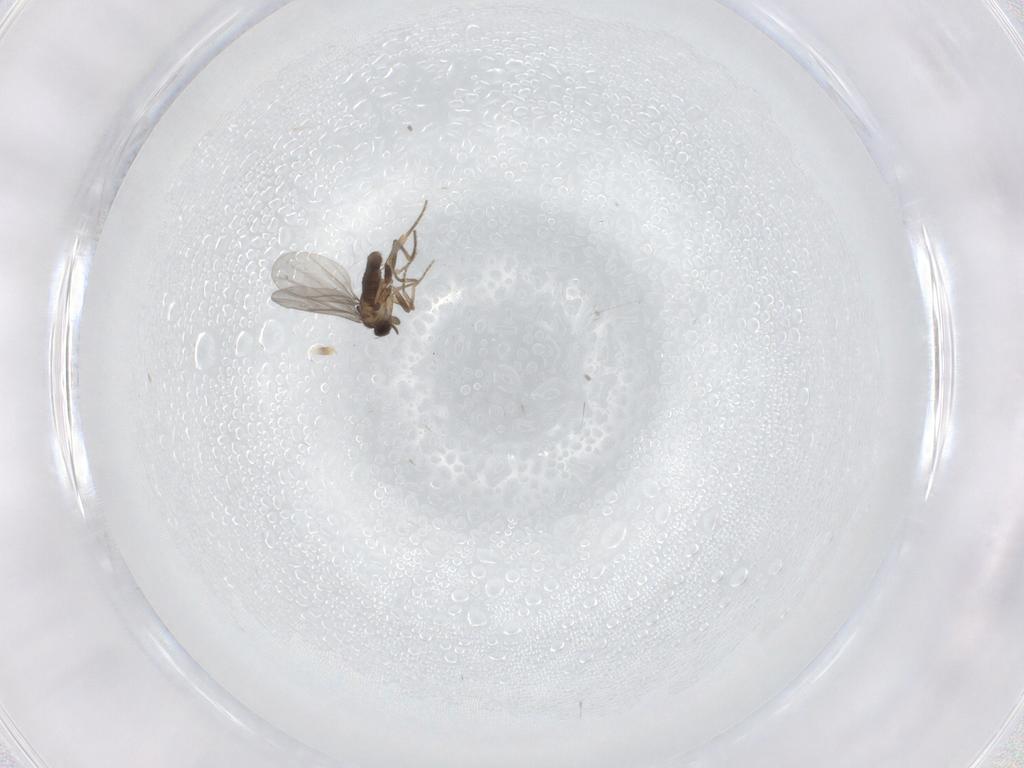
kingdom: Animalia
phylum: Arthropoda
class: Insecta
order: Diptera
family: Sciaridae
